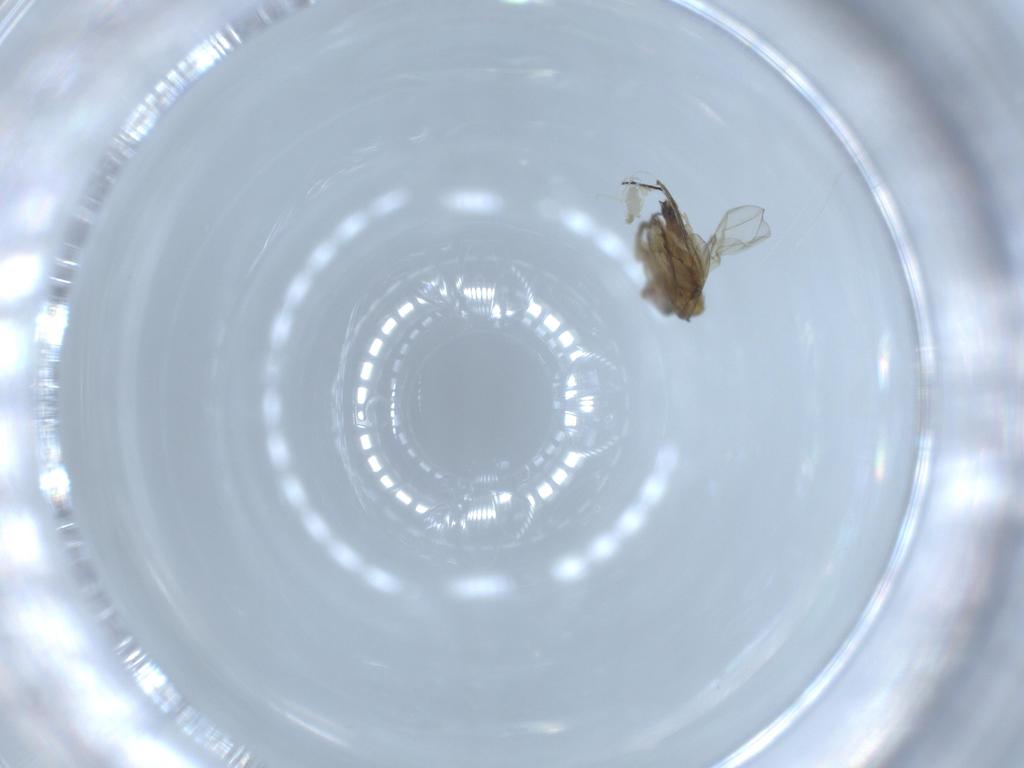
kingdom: Animalia
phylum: Arthropoda
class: Insecta
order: Diptera
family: Phoridae
